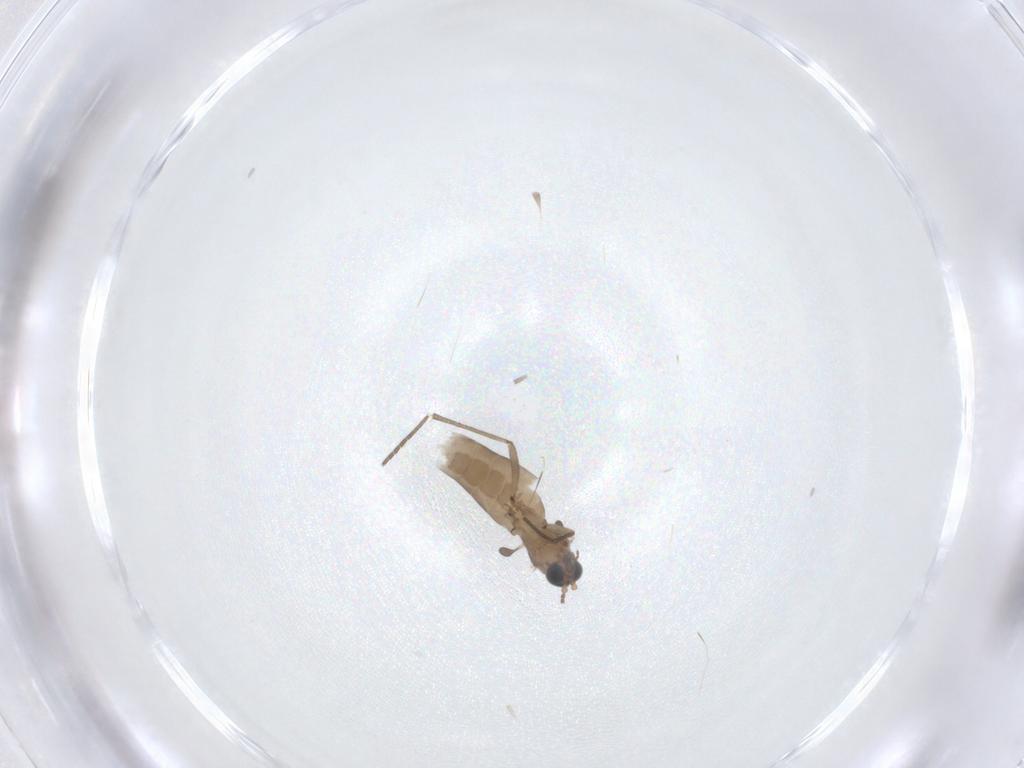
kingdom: Animalia
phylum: Arthropoda
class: Insecta
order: Diptera
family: Sciaridae
